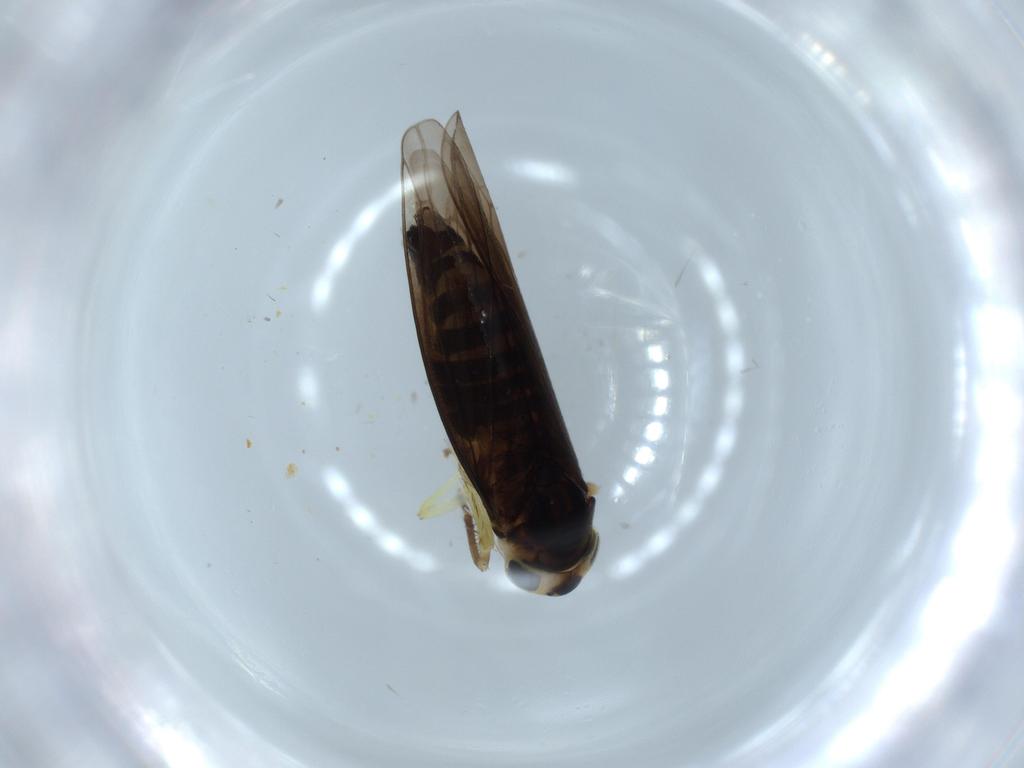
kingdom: Animalia
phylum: Arthropoda
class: Insecta
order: Hemiptera
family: Cicadellidae
